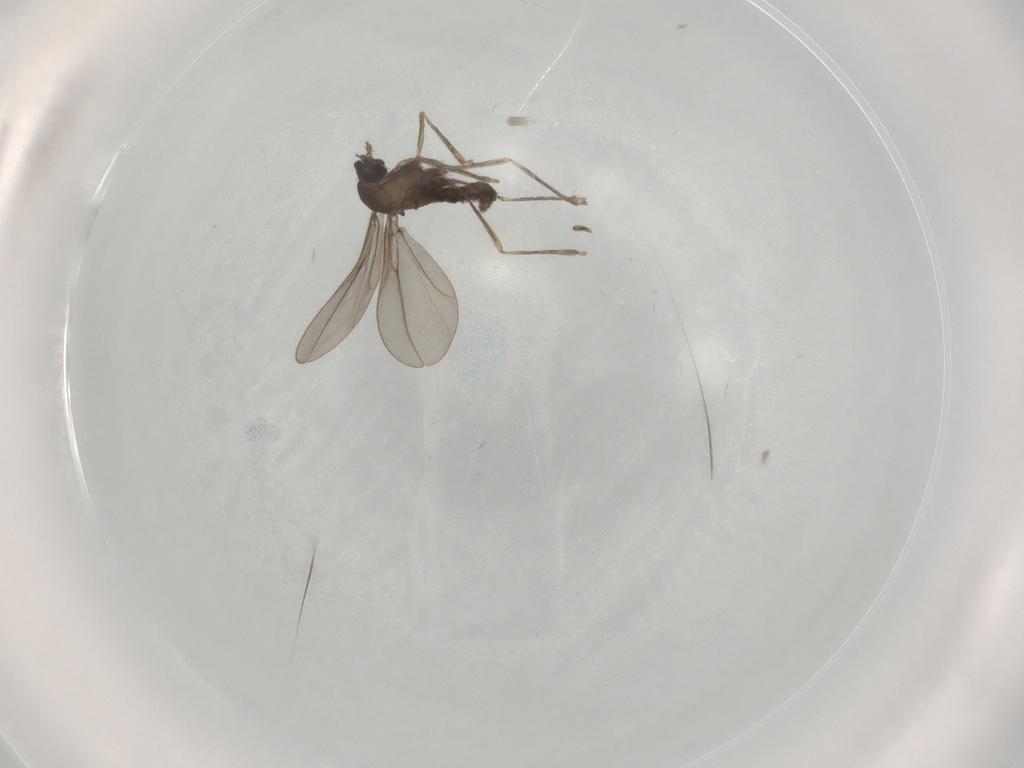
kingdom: Animalia
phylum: Arthropoda
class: Insecta
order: Diptera
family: Cecidomyiidae
